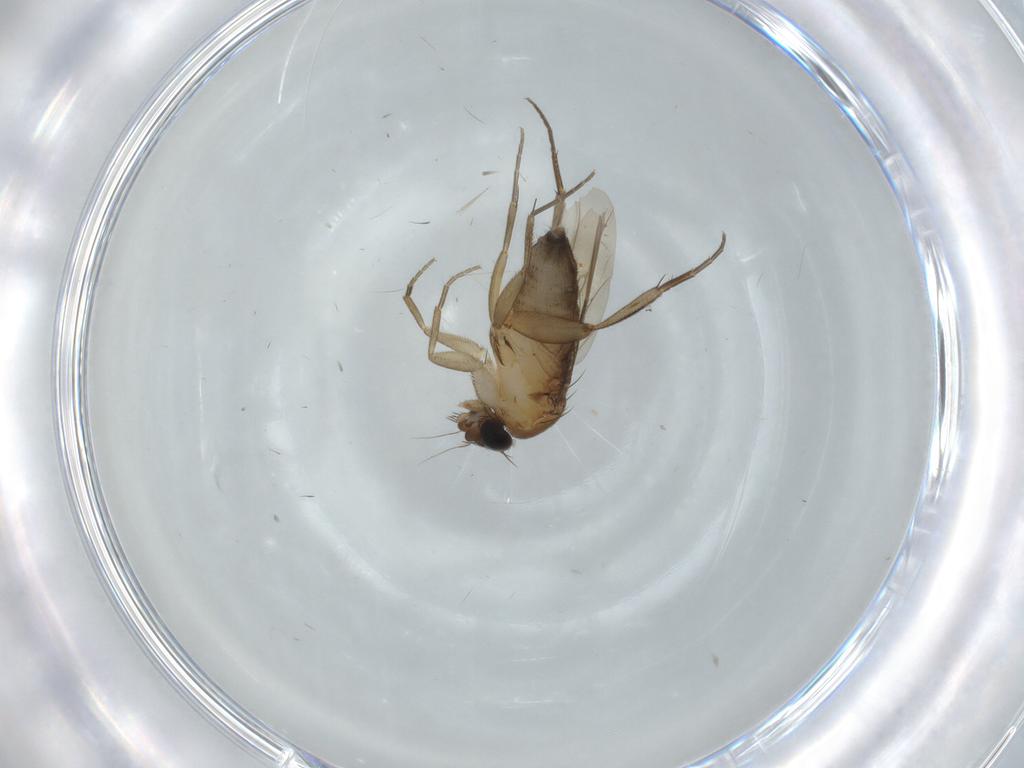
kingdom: Animalia
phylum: Arthropoda
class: Insecta
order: Diptera
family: Phoridae
